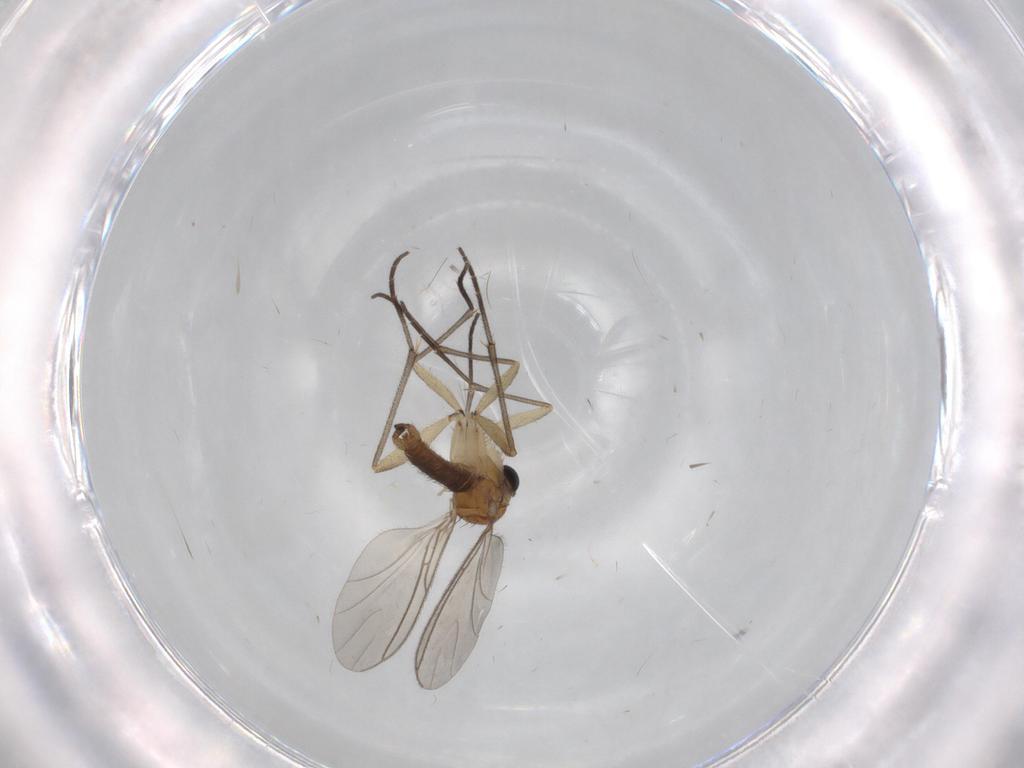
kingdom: Animalia
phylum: Arthropoda
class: Insecta
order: Diptera
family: Sciaridae
